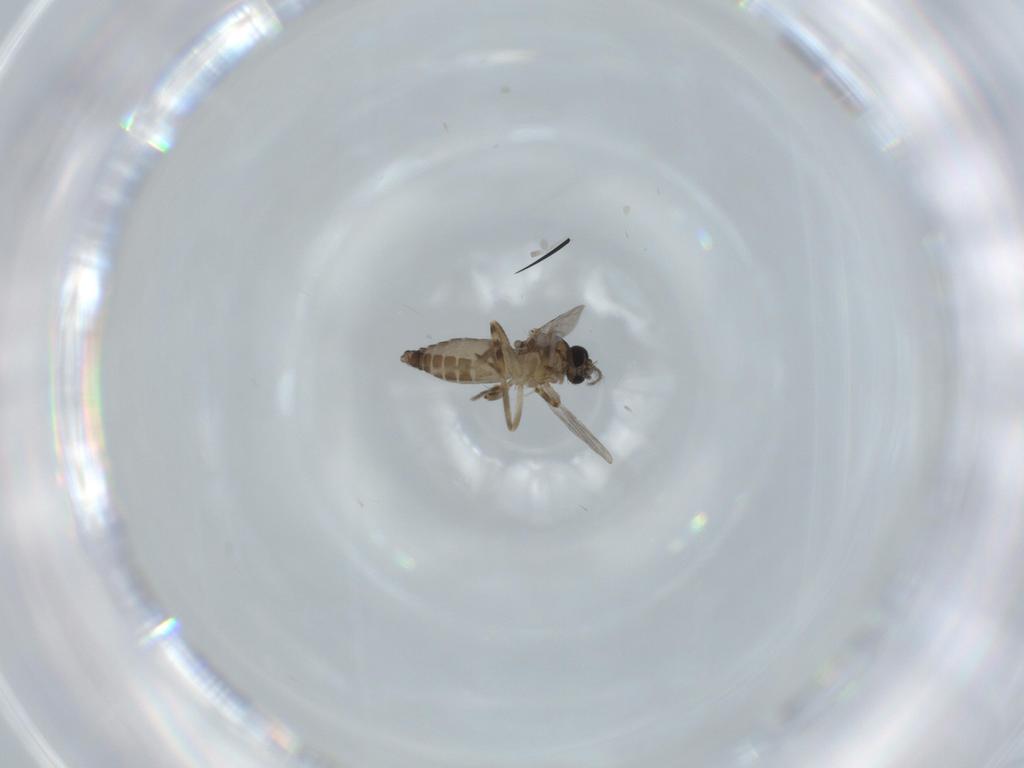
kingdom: Animalia
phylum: Arthropoda
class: Insecta
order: Diptera
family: Ceratopogonidae
